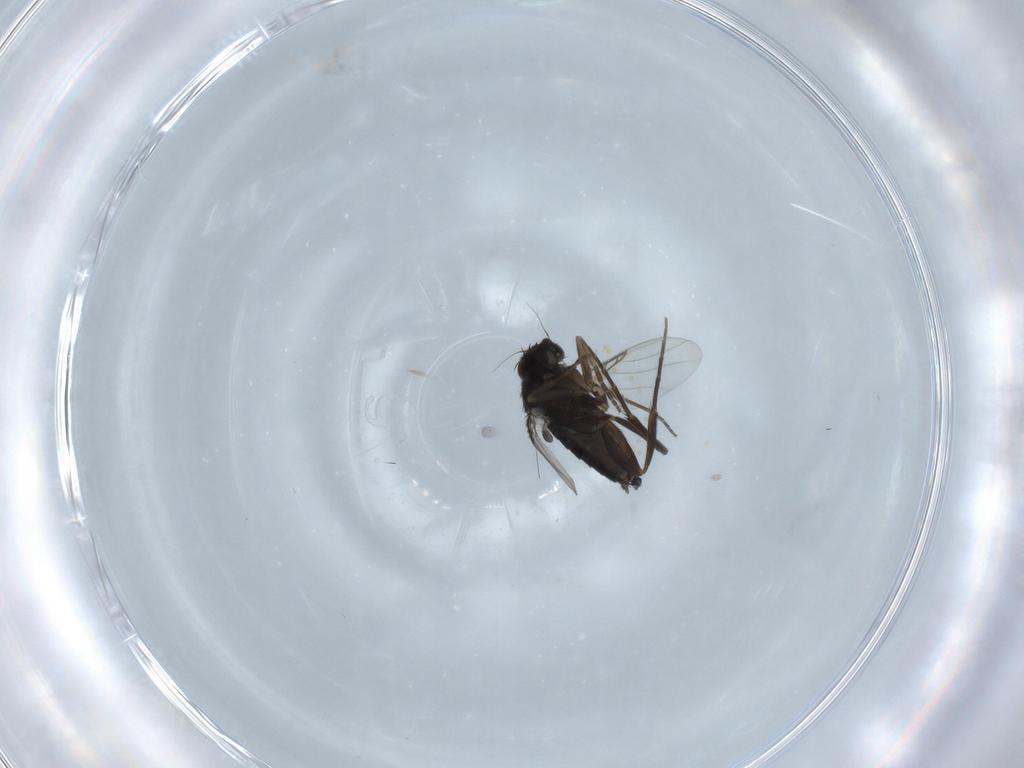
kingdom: Animalia
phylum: Arthropoda
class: Insecta
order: Diptera
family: Phoridae
